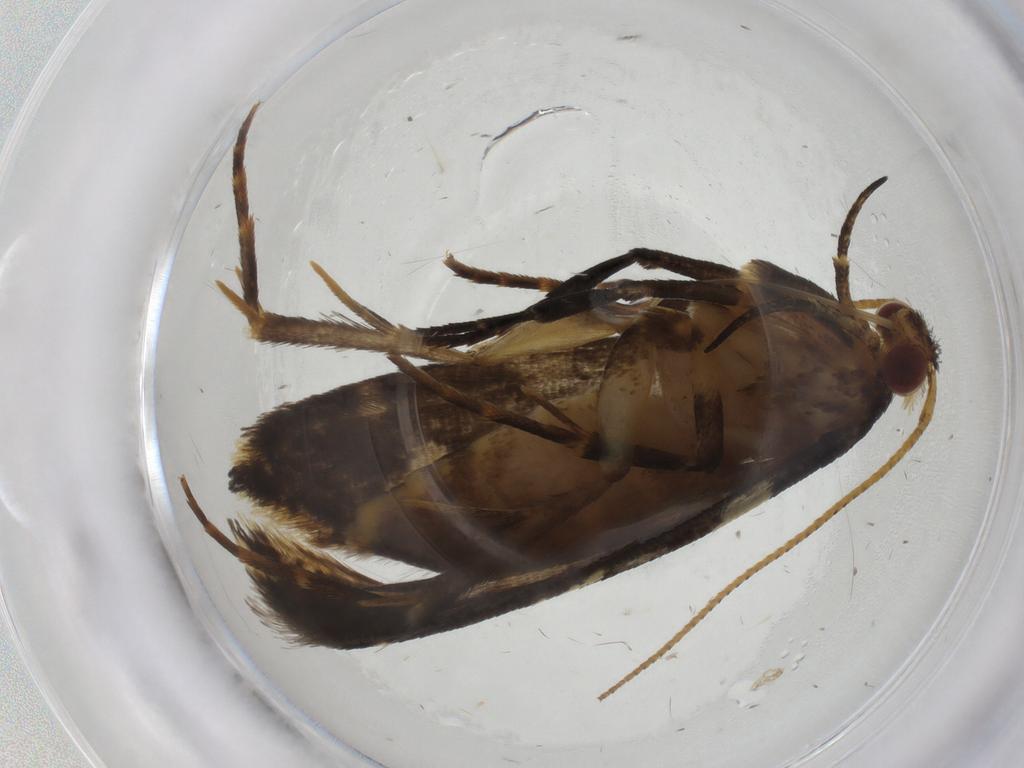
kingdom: Animalia
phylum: Arthropoda
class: Insecta
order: Lepidoptera
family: Blastobasidae
